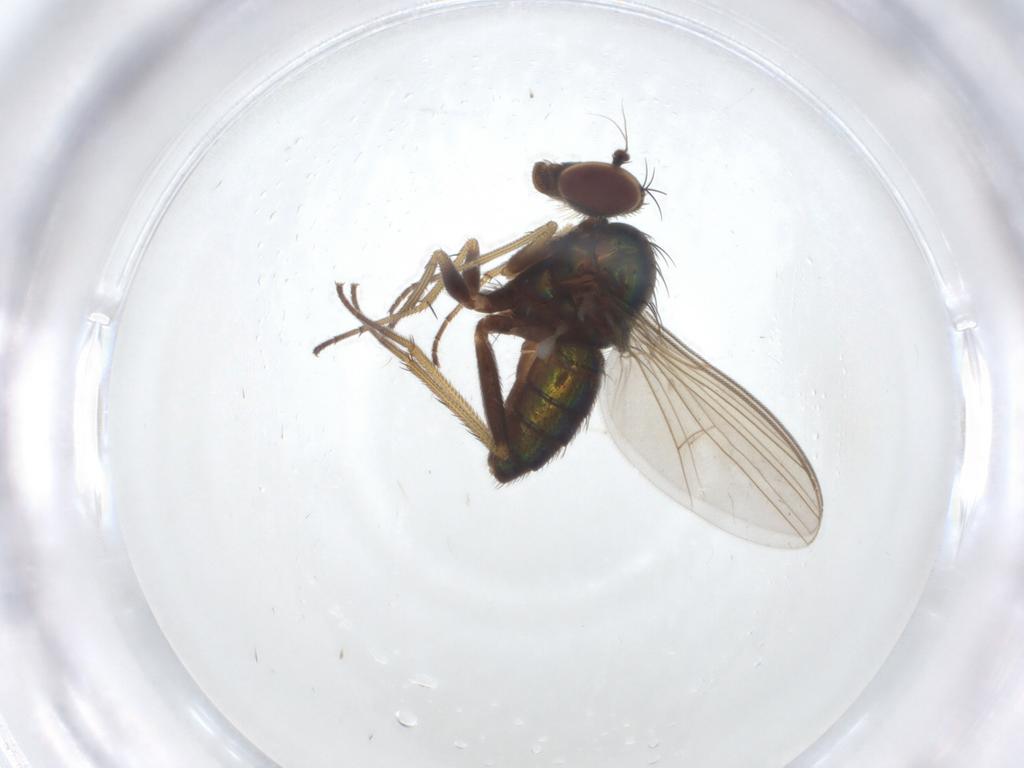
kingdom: Animalia
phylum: Arthropoda
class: Insecta
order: Diptera
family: Dolichopodidae
